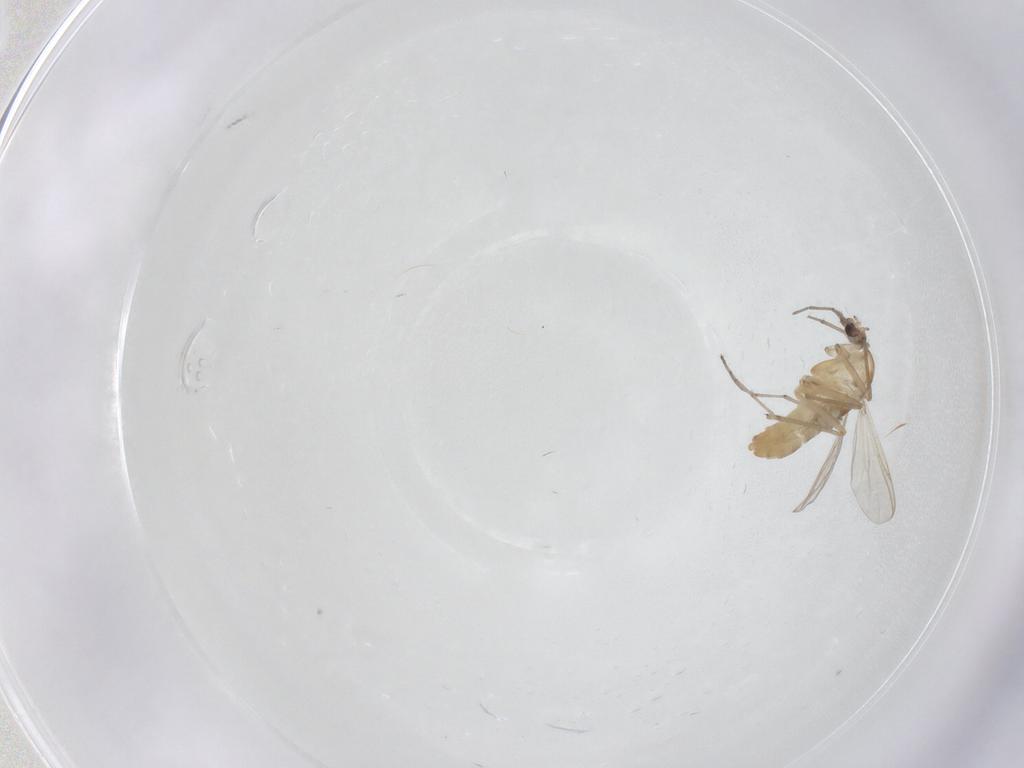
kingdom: Animalia
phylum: Arthropoda
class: Insecta
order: Diptera
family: Chironomidae
